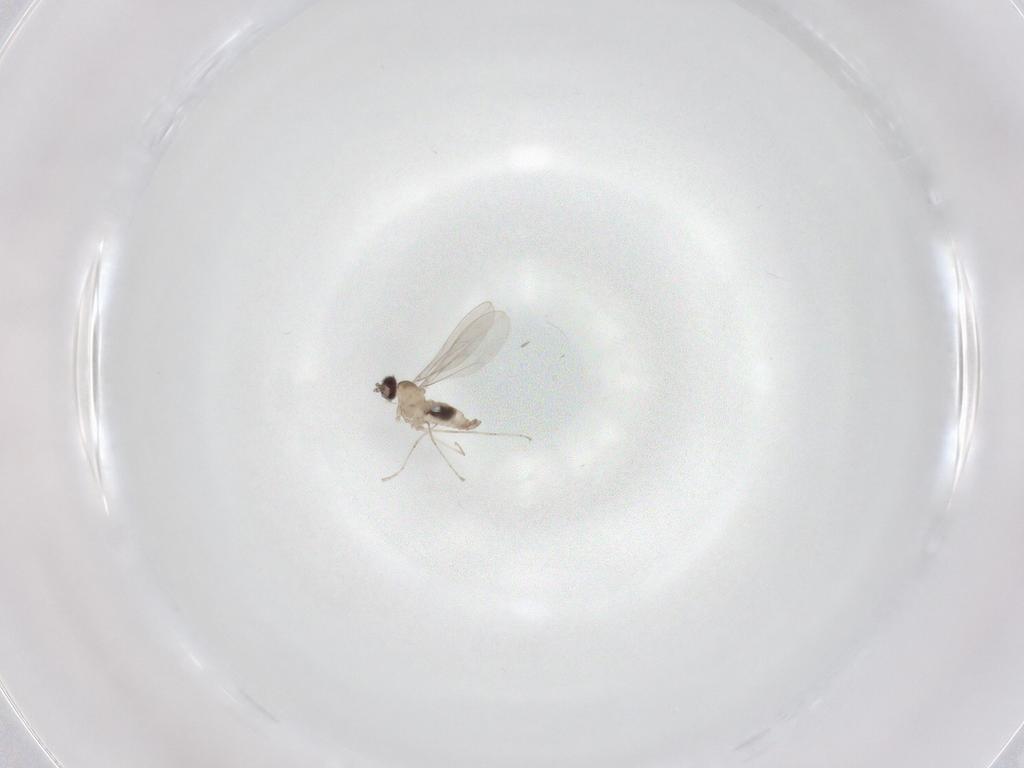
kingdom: Animalia
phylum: Arthropoda
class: Insecta
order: Diptera
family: Cecidomyiidae
